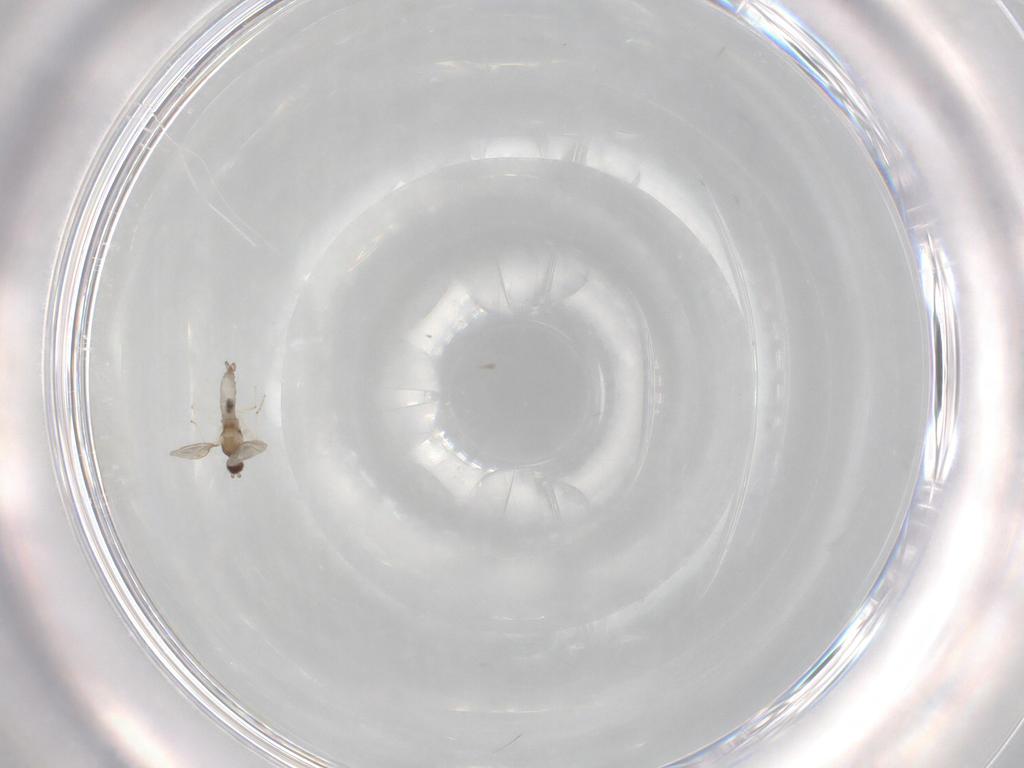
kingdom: Animalia
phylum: Arthropoda
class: Insecta
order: Diptera
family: Cecidomyiidae
